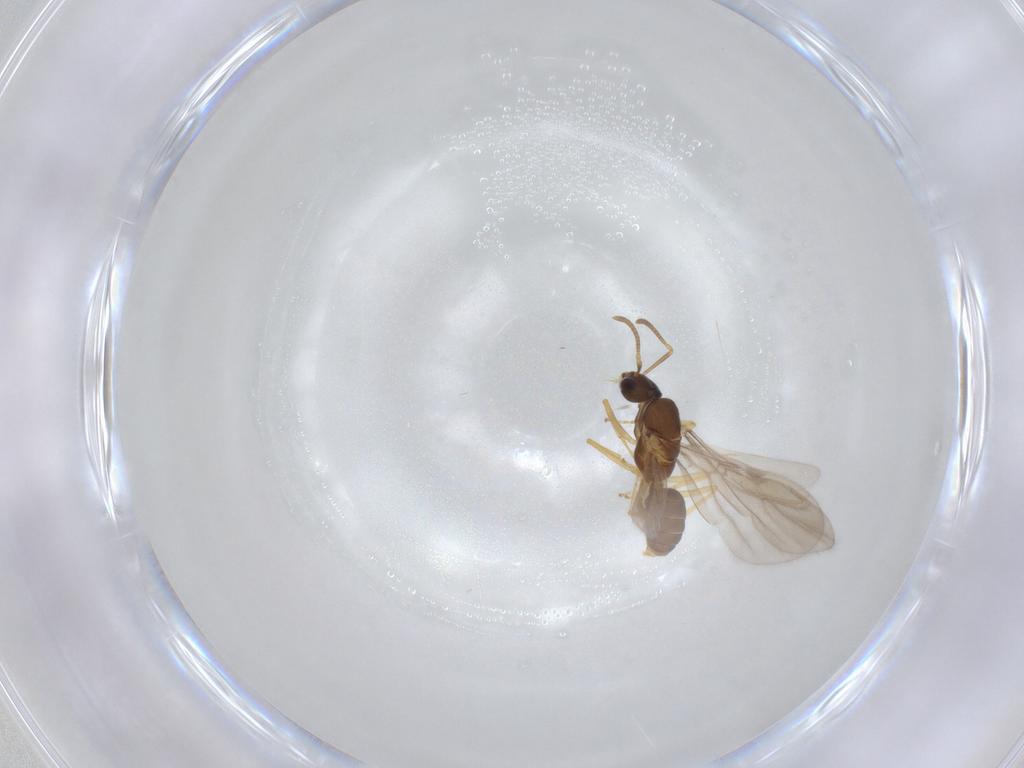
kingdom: Animalia
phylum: Arthropoda
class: Insecta
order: Hymenoptera
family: Formicidae
